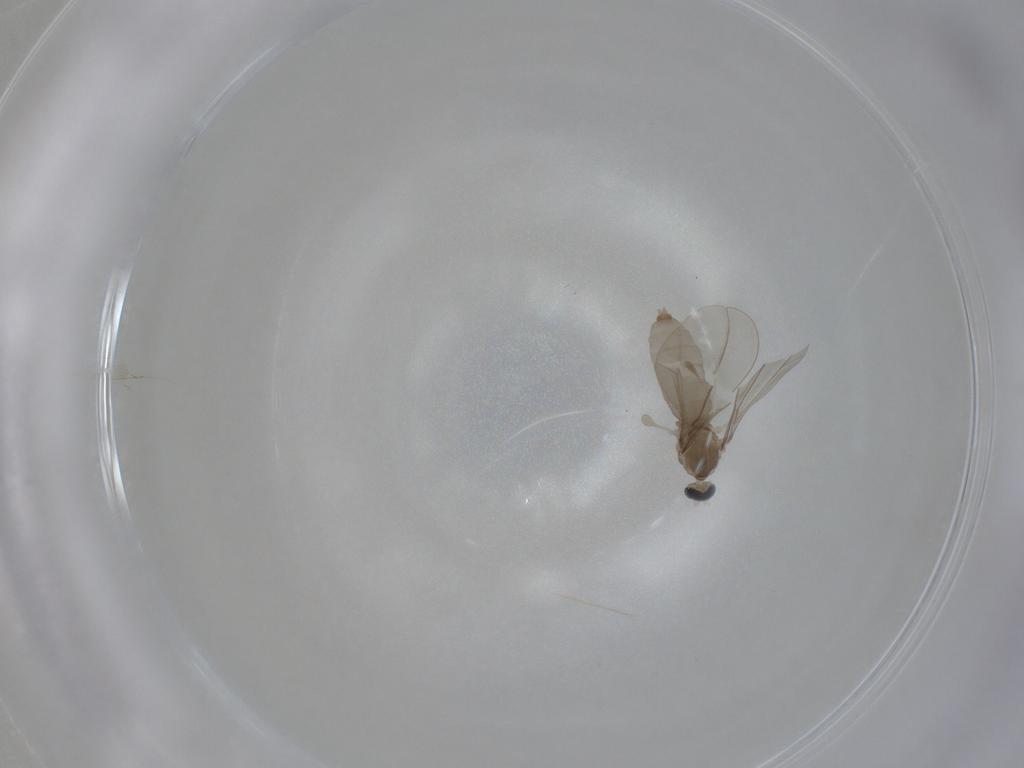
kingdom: Animalia
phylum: Arthropoda
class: Insecta
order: Diptera
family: Cecidomyiidae
